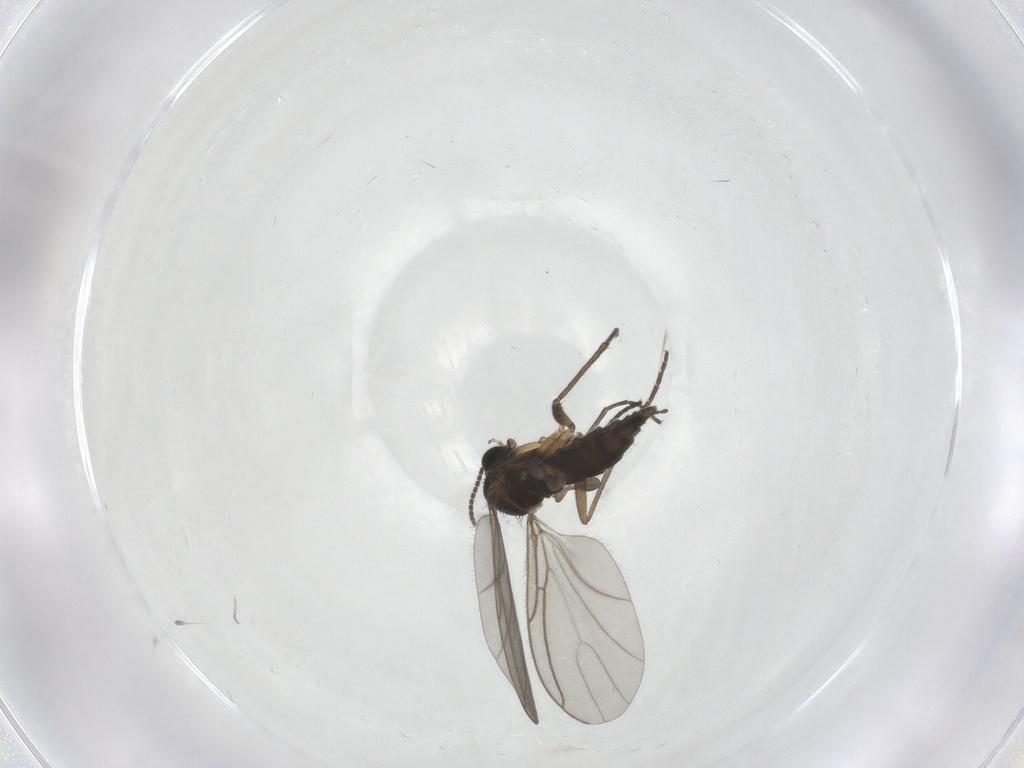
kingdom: Animalia
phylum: Arthropoda
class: Insecta
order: Diptera
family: Sciaridae
